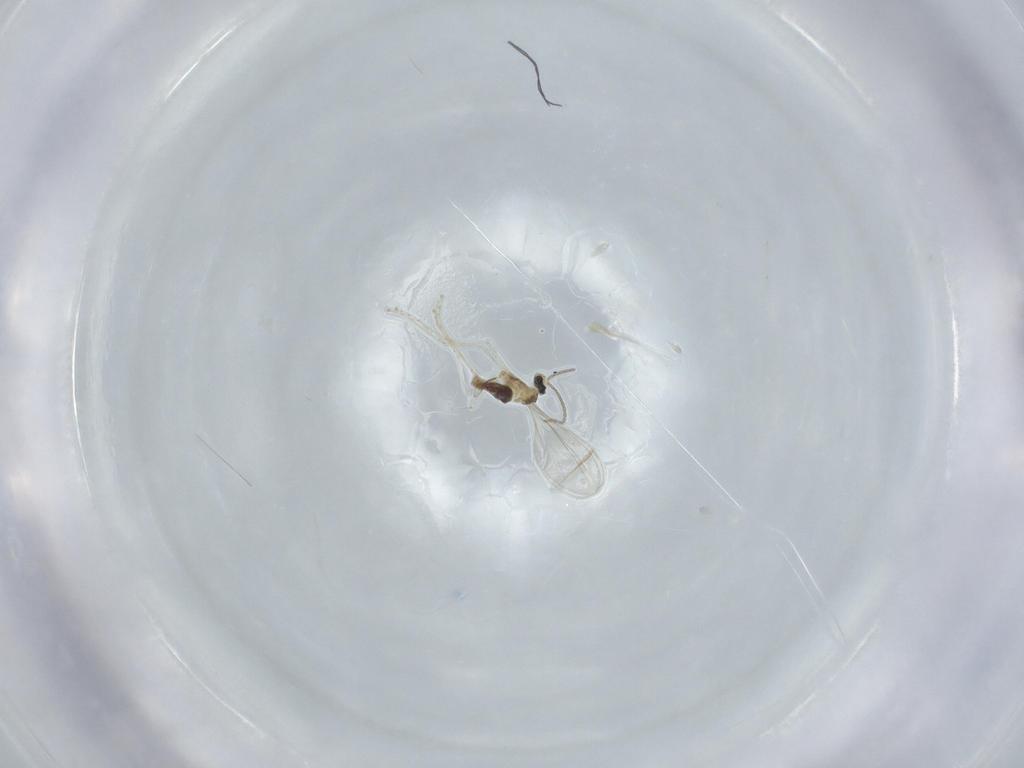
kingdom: Animalia
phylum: Arthropoda
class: Insecta
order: Diptera
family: Cecidomyiidae
